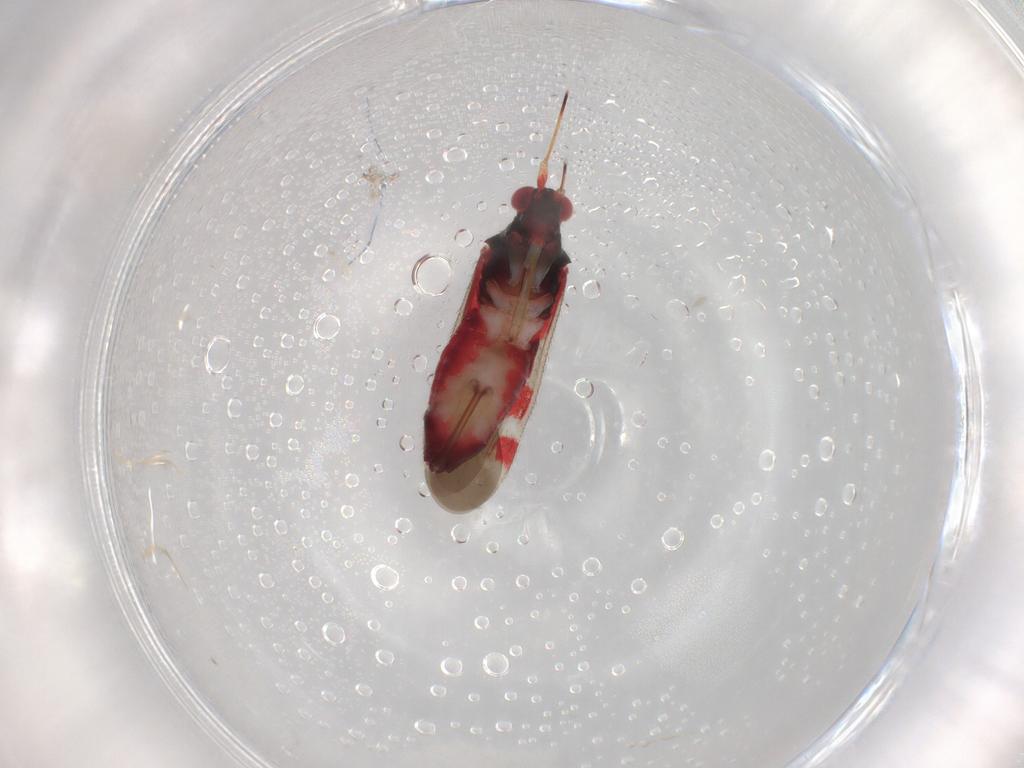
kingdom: Animalia
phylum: Arthropoda
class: Insecta
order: Hemiptera
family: Miridae
